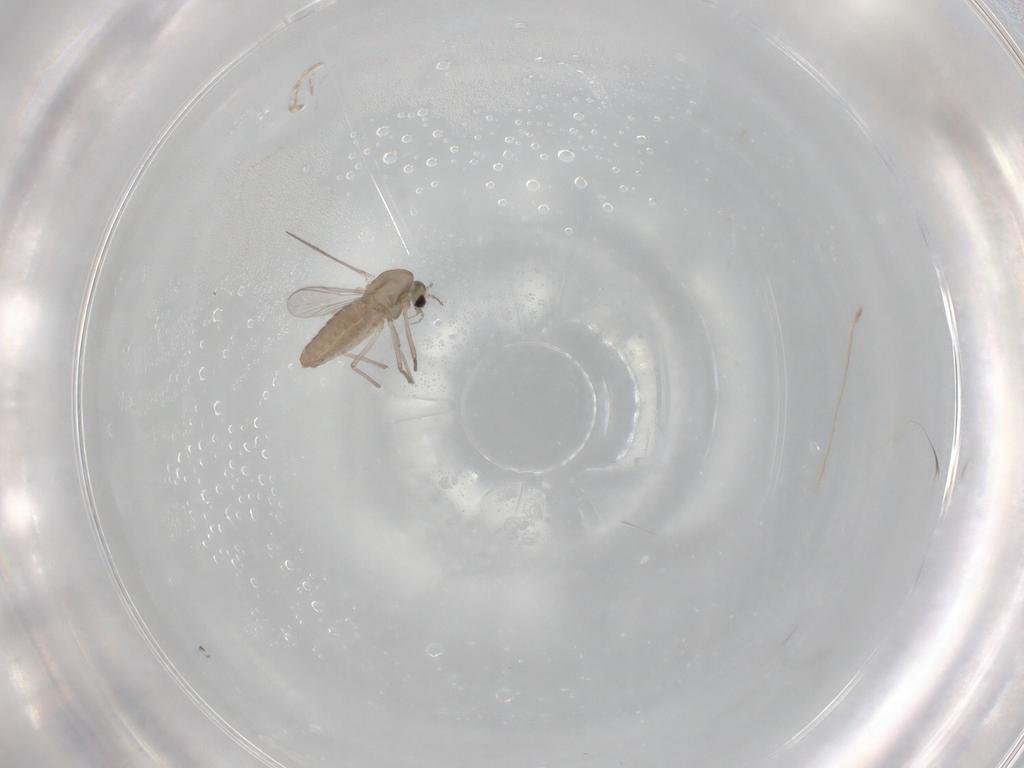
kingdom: Animalia
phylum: Arthropoda
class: Insecta
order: Diptera
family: Chironomidae
